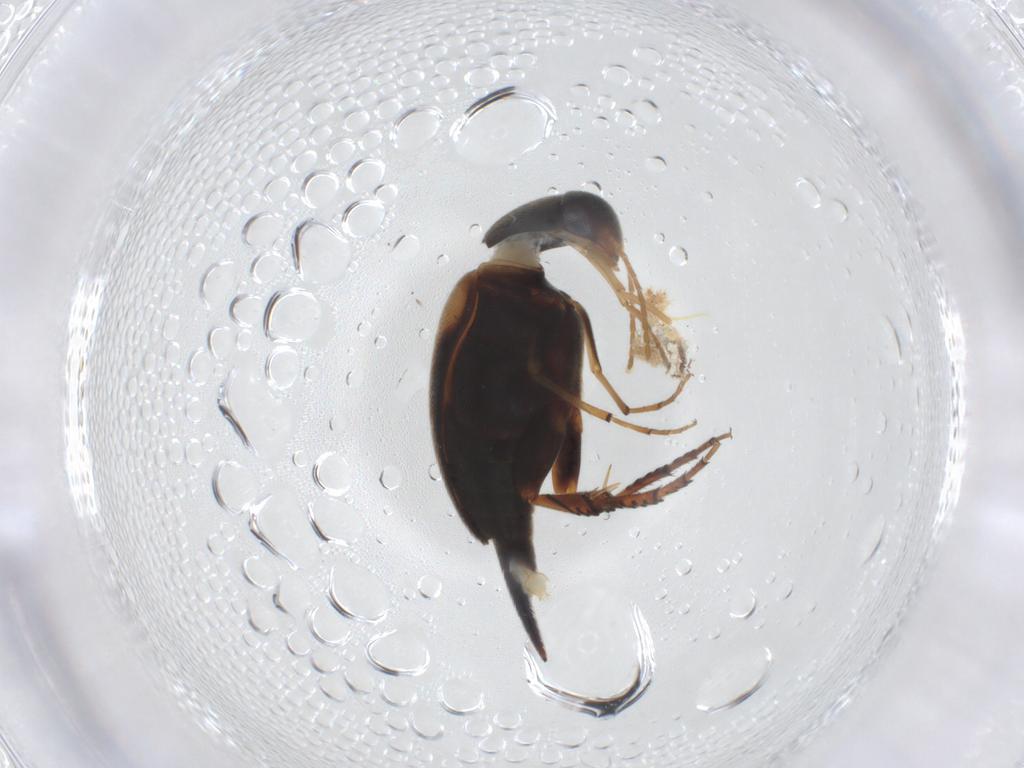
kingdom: Animalia
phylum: Arthropoda
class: Insecta
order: Coleoptera
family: Mordellidae
